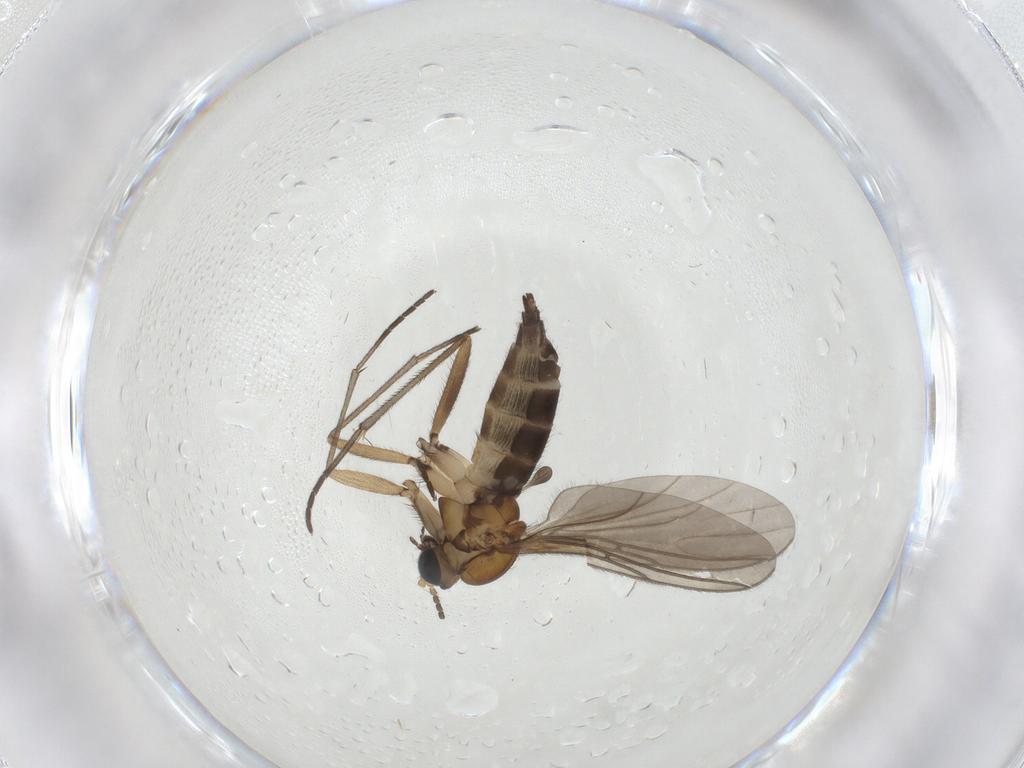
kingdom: Animalia
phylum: Arthropoda
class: Insecta
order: Diptera
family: Sciaridae
